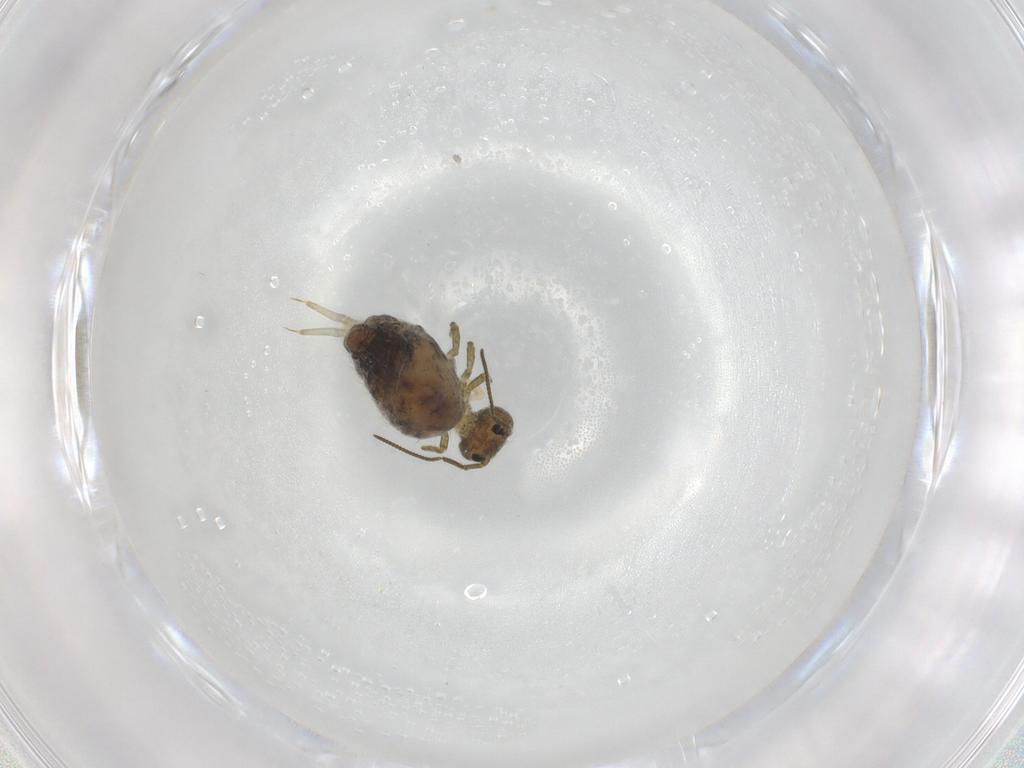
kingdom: Animalia
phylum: Arthropoda
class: Collembola
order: Symphypleona
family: Sminthuridae
